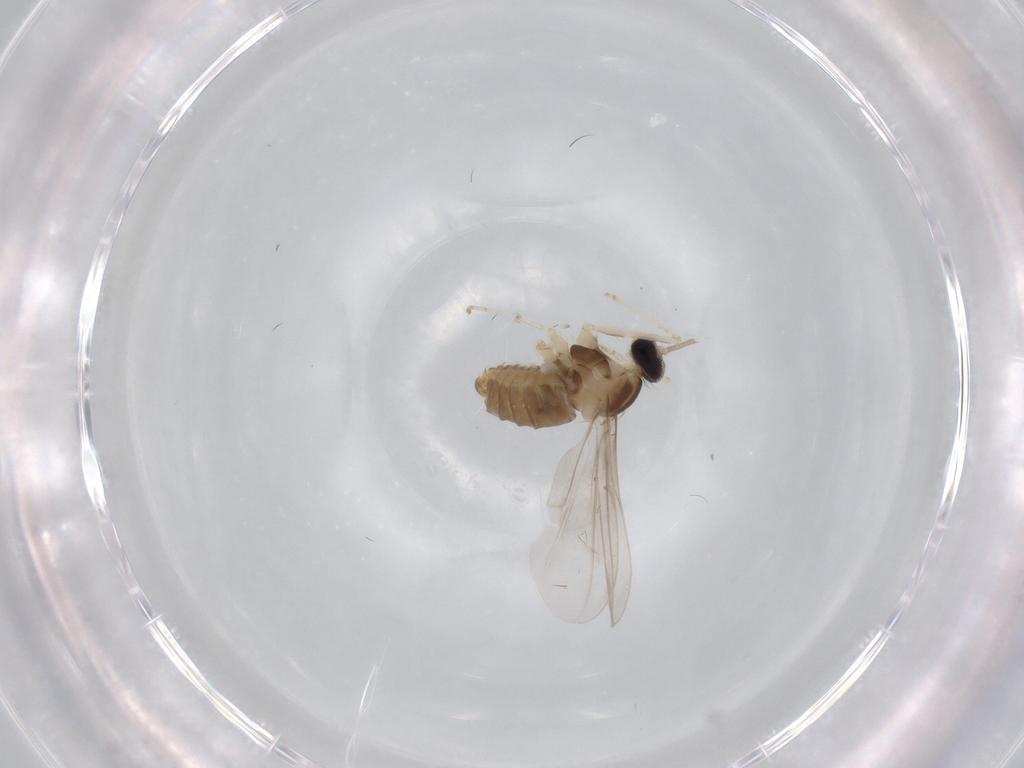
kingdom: Animalia
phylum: Arthropoda
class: Insecta
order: Diptera
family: Cecidomyiidae
